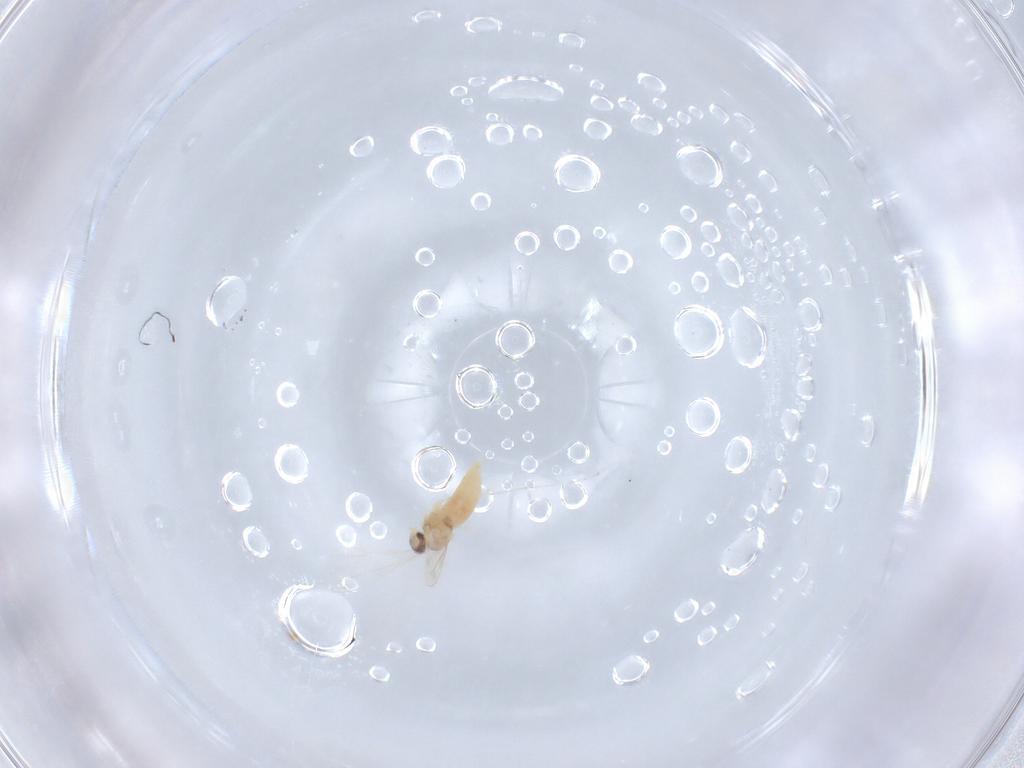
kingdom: Animalia
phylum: Arthropoda
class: Insecta
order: Diptera
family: Cecidomyiidae
